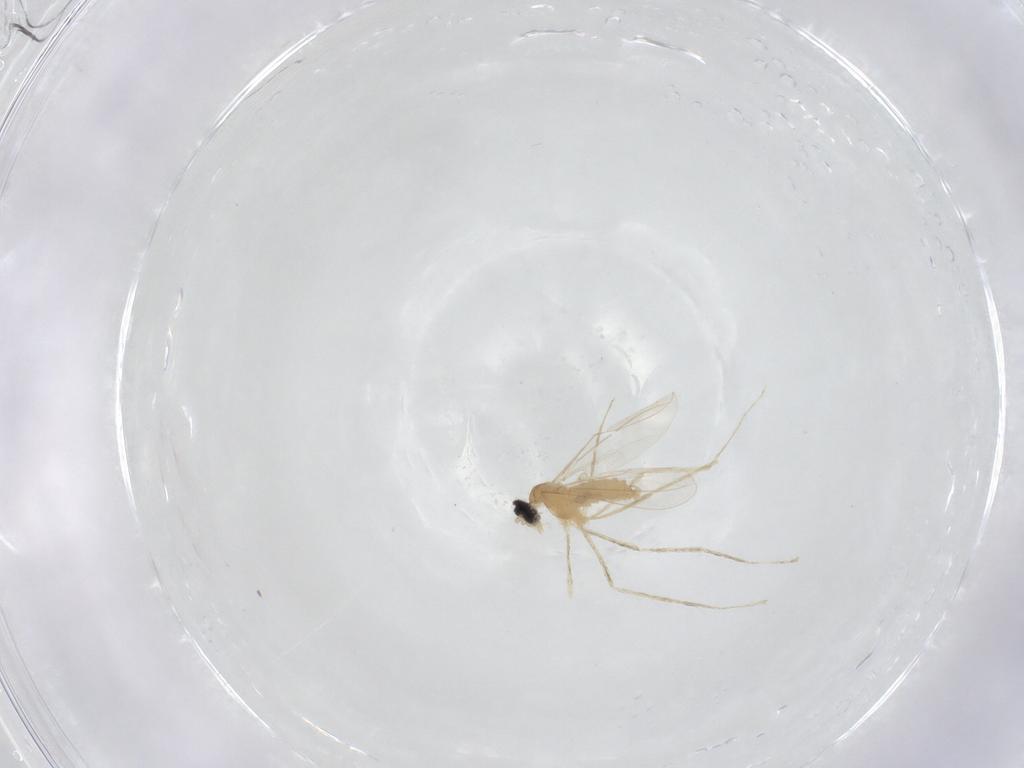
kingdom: Animalia
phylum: Arthropoda
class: Insecta
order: Diptera
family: Cecidomyiidae
